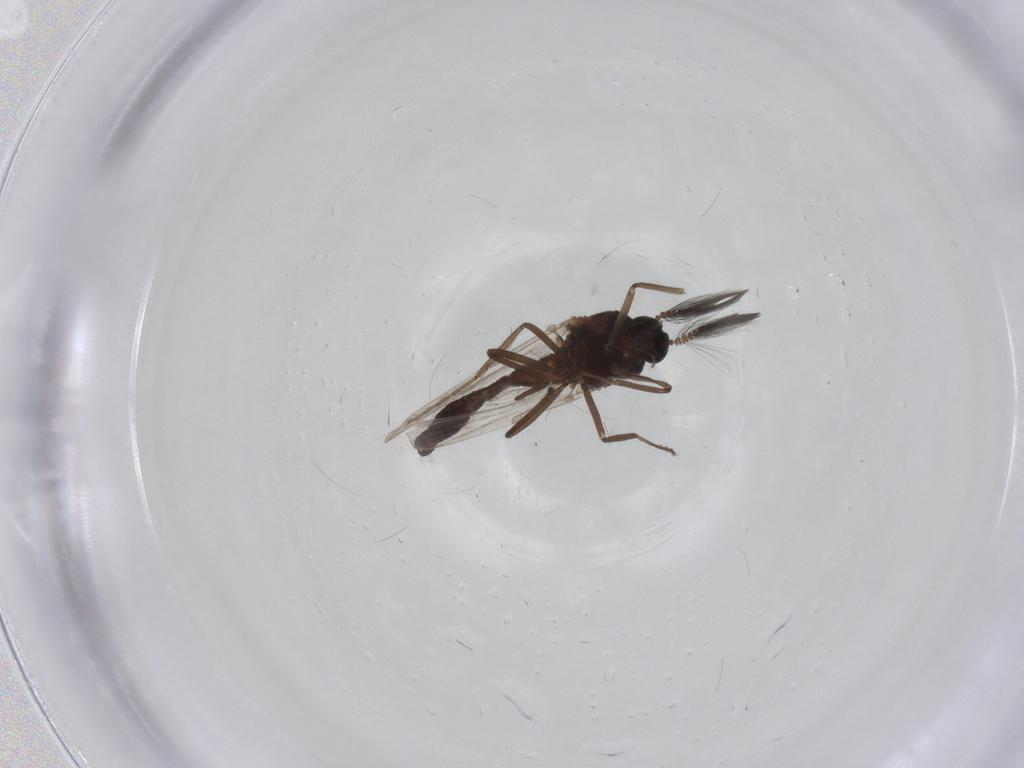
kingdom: Animalia
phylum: Arthropoda
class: Insecta
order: Diptera
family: Ceratopogonidae
